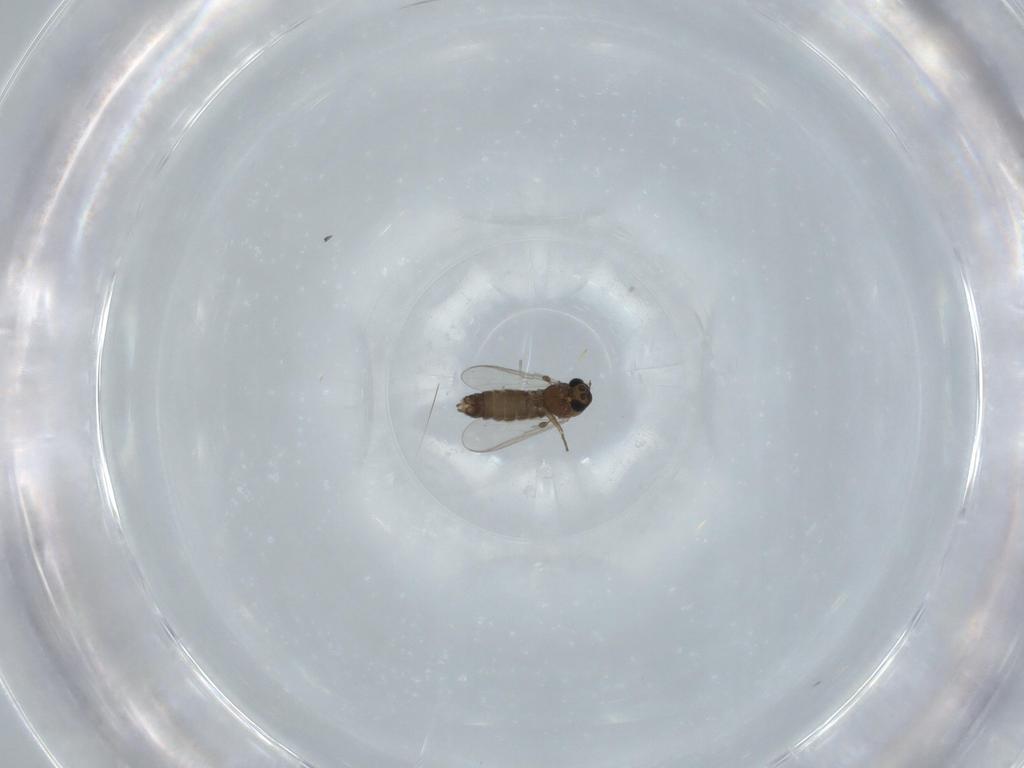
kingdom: Animalia
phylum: Arthropoda
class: Insecta
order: Diptera
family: Chironomidae
